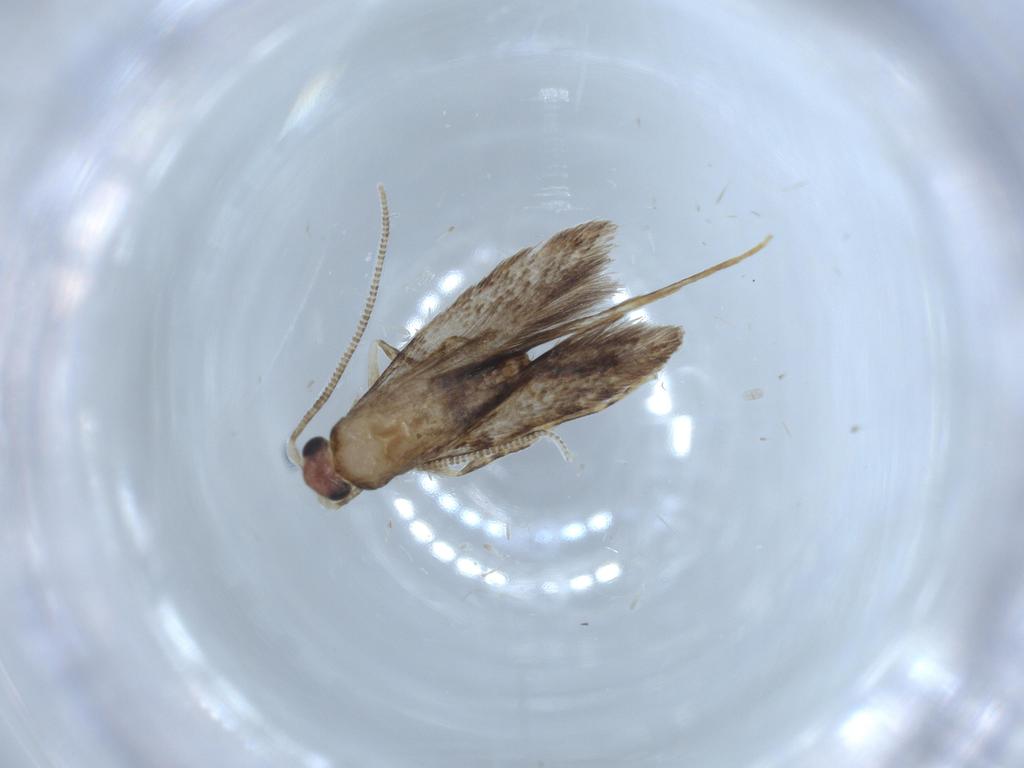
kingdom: Animalia
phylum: Arthropoda
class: Insecta
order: Lepidoptera
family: Tineidae
